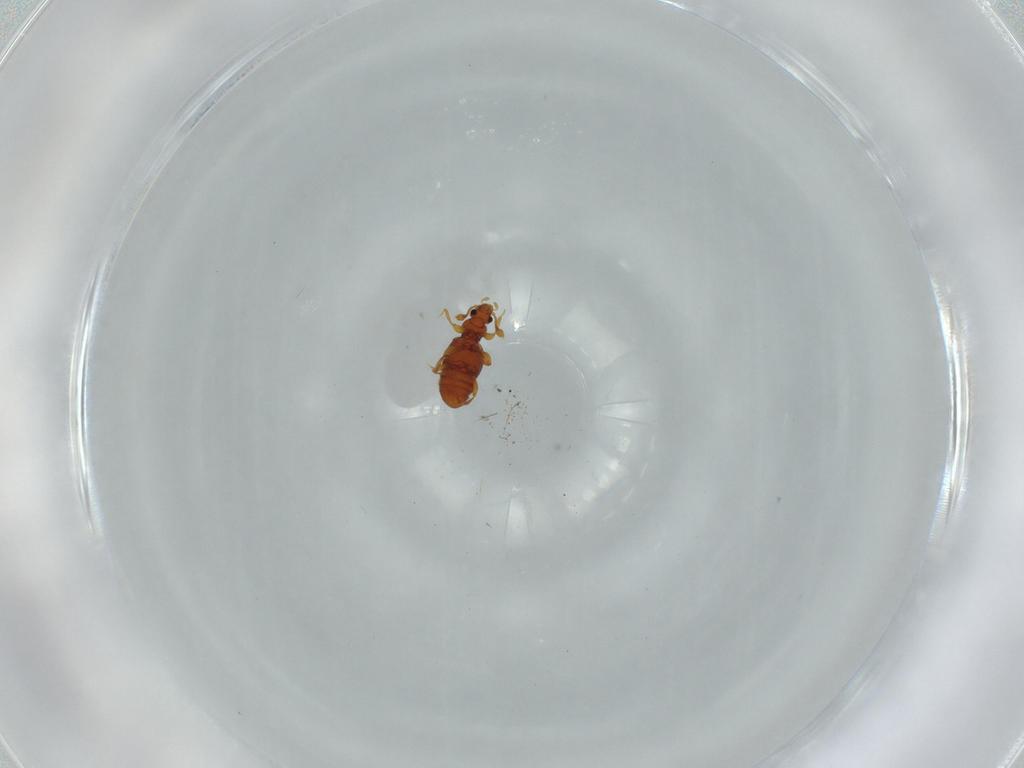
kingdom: Animalia
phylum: Arthropoda
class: Insecta
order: Coleoptera
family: Staphylinidae
